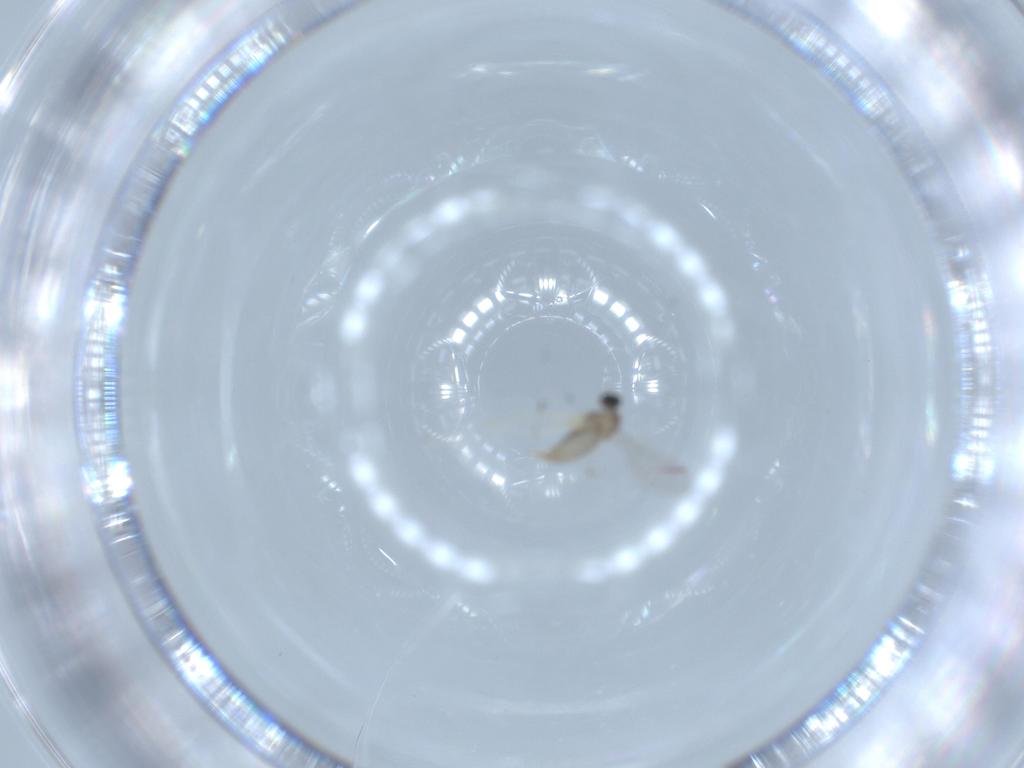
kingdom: Animalia
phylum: Arthropoda
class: Insecta
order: Diptera
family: Cecidomyiidae
